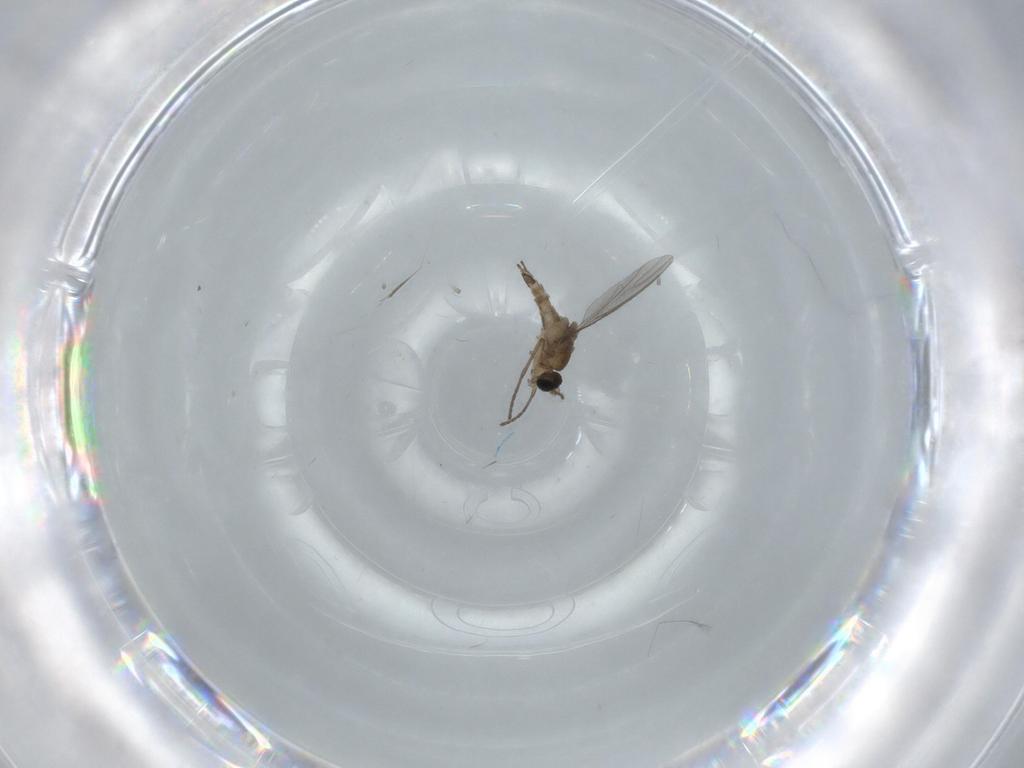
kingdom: Animalia
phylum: Arthropoda
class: Insecta
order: Diptera
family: Sciaridae
